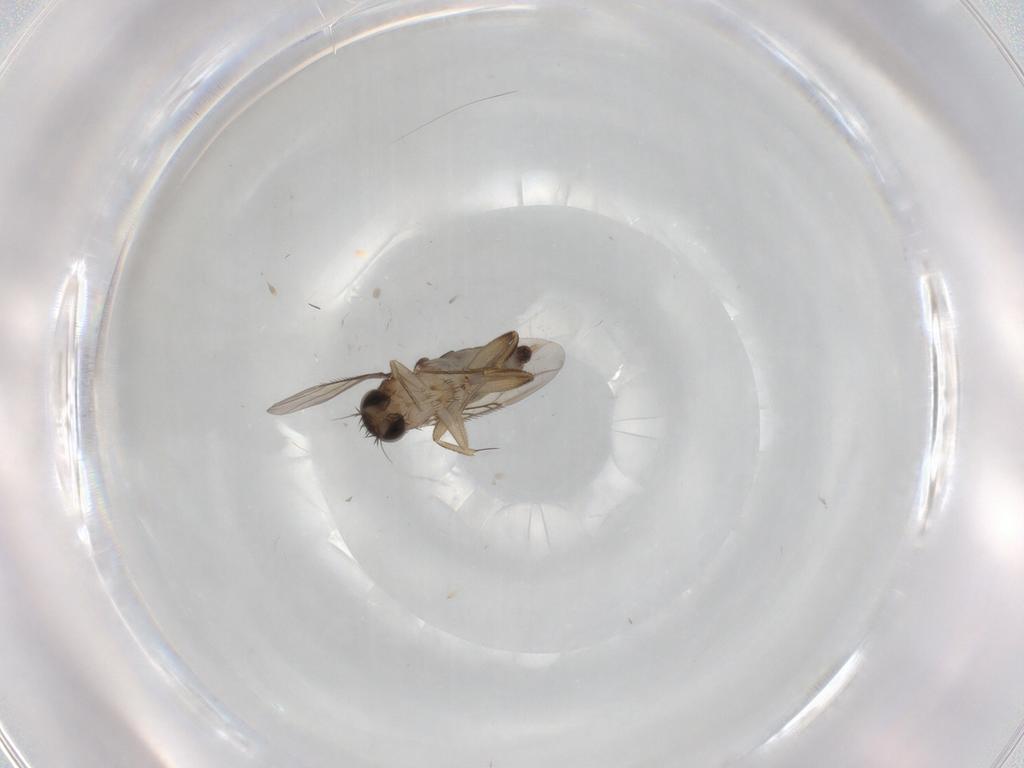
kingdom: Animalia
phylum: Arthropoda
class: Insecta
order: Diptera
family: Phoridae
